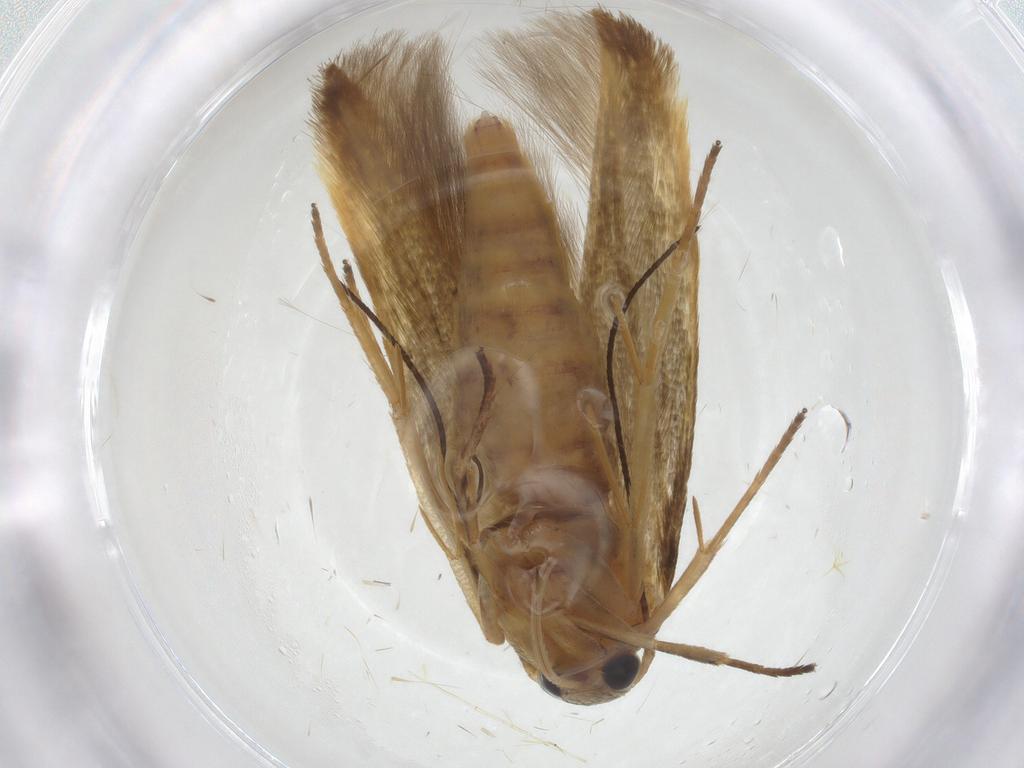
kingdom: Animalia
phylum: Arthropoda
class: Insecta
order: Lepidoptera
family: Stathmopodidae
